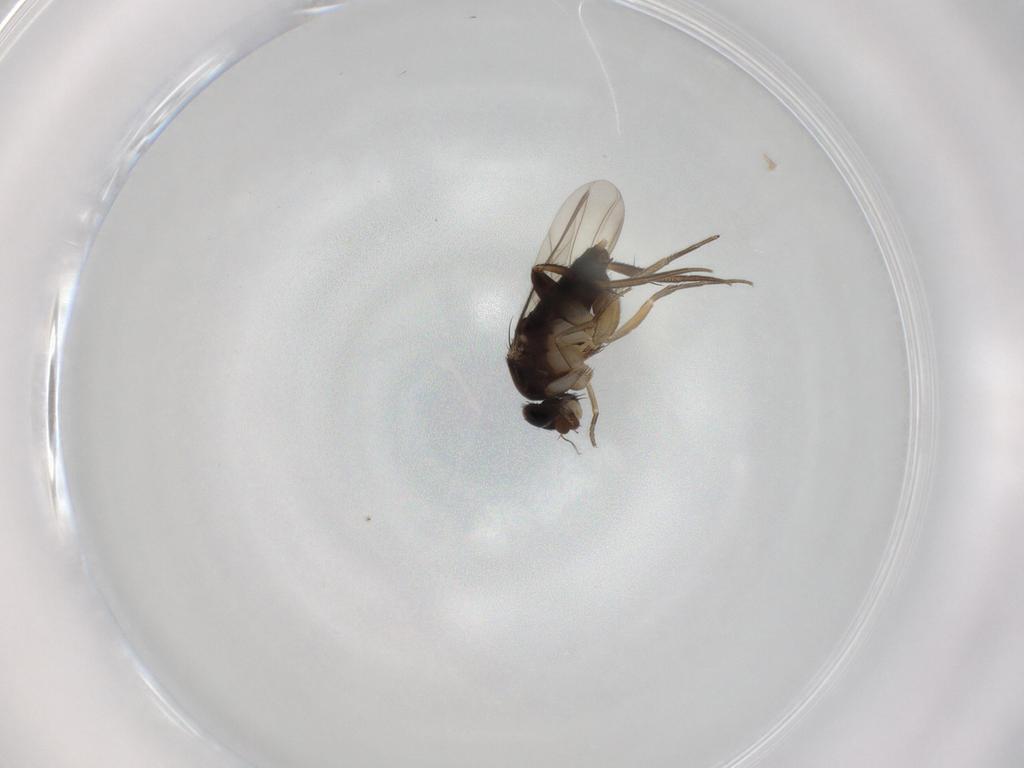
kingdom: Animalia
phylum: Arthropoda
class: Insecta
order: Diptera
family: Phoridae
